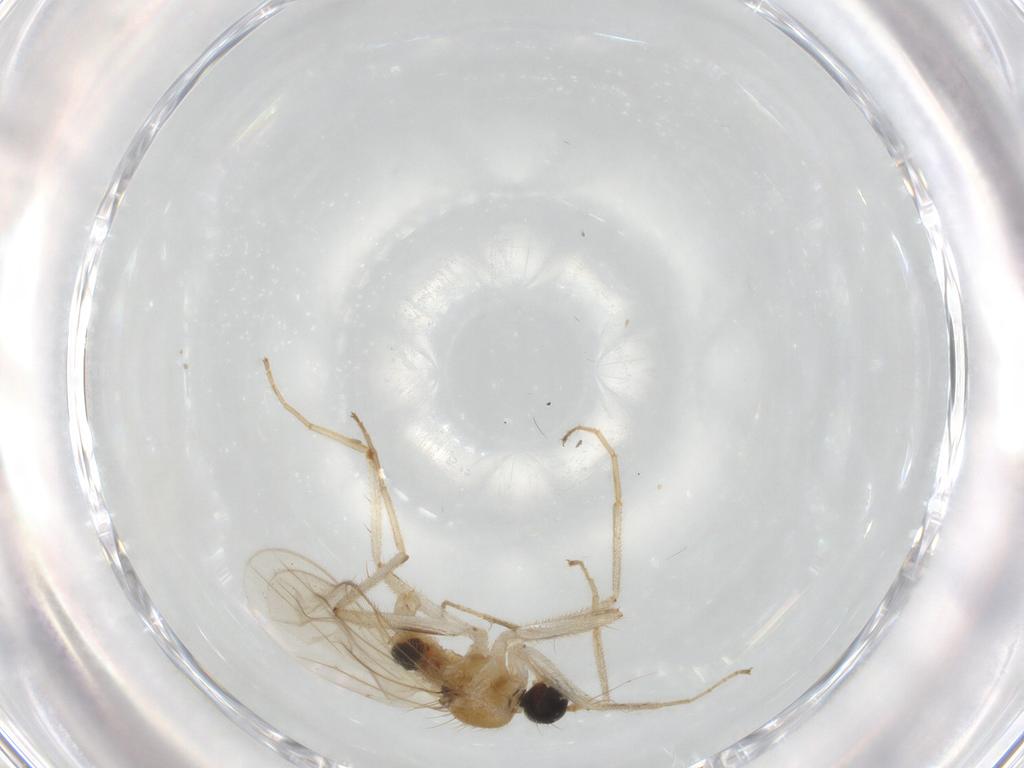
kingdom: Animalia
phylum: Arthropoda
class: Insecta
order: Diptera
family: Hybotidae
